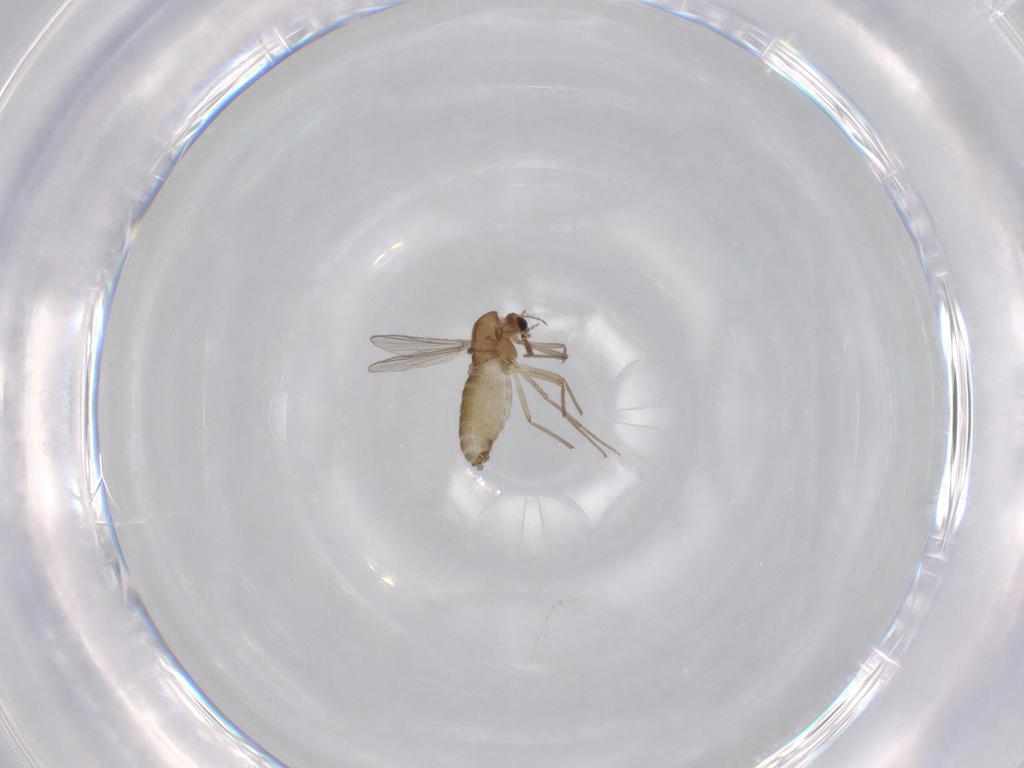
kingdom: Animalia
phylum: Arthropoda
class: Insecta
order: Diptera
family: Chironomidae
